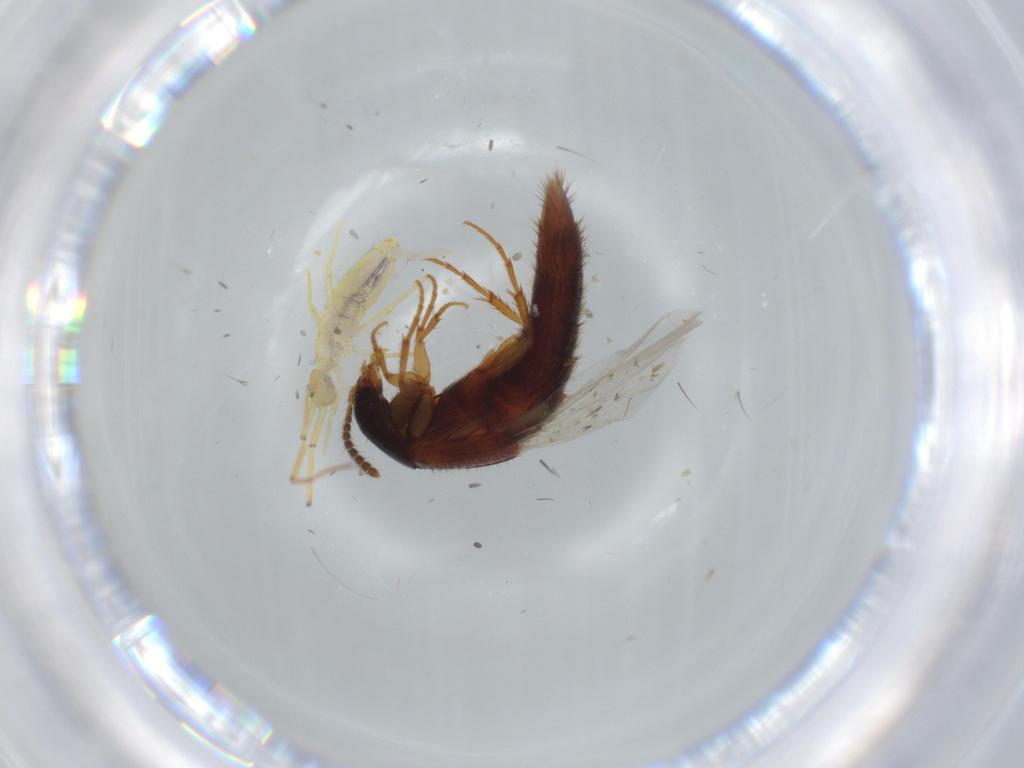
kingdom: Animalia
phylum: Arthropoda
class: Insecta
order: Coleoptera
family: Staphylinidae
